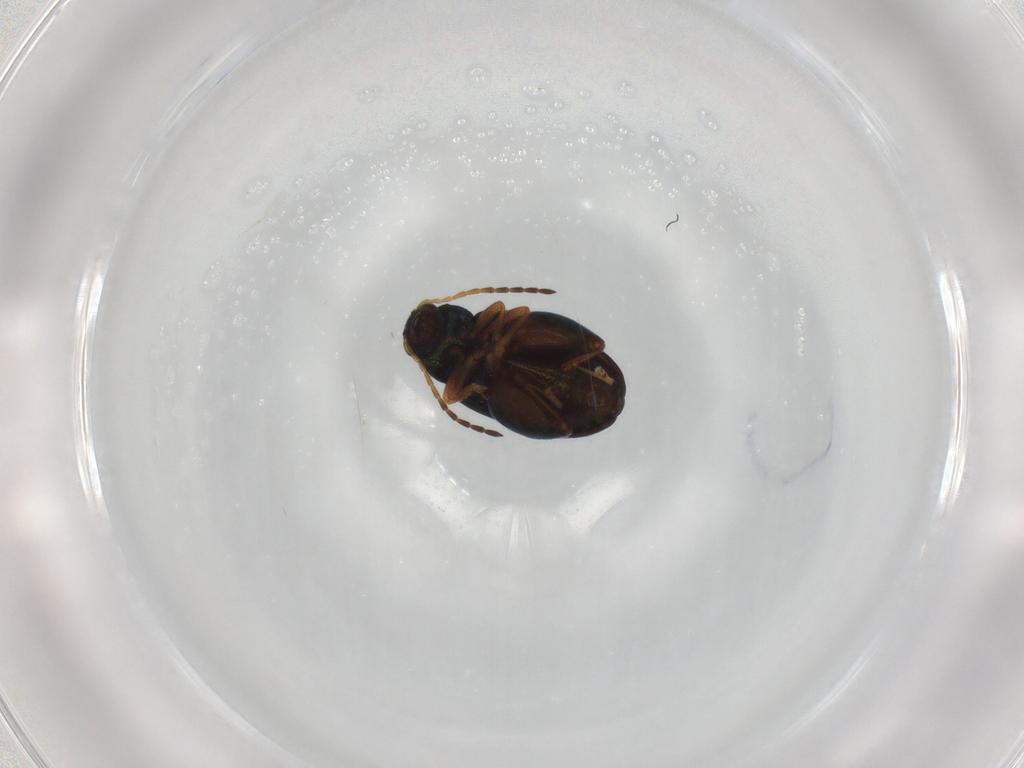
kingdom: Animalia
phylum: Arthropoda
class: Insecta
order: Coleoptera
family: Chrysomelidae
